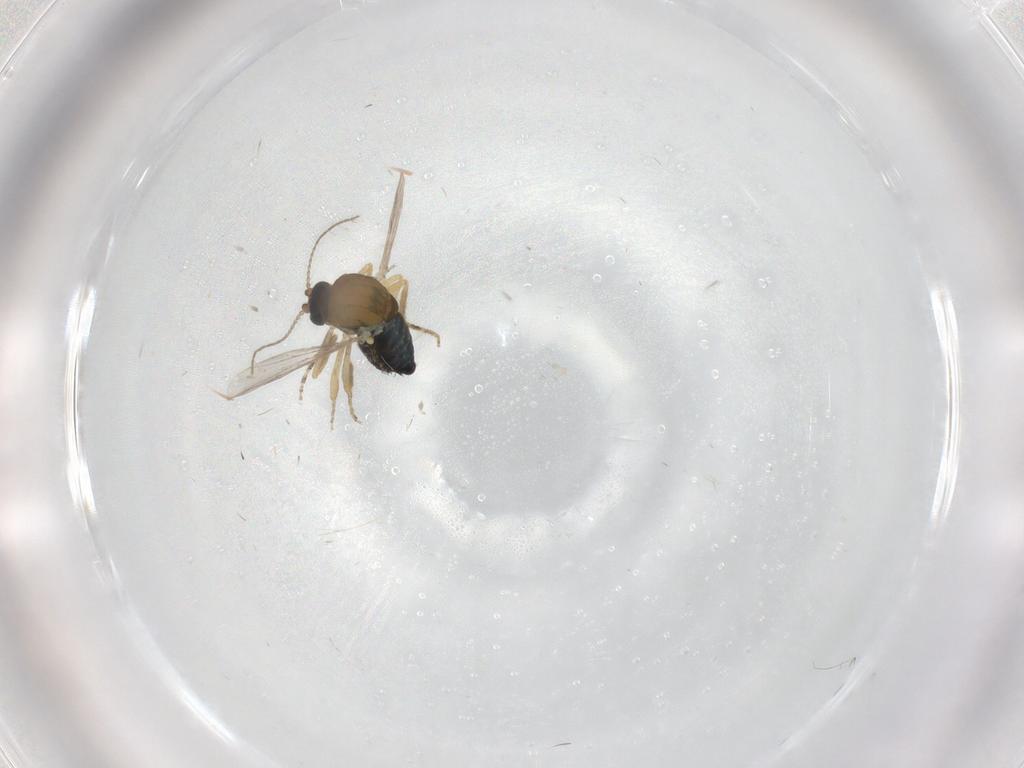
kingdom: Animalia
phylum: Arthropoda
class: Insecta
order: Diptera
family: Ceratopogonidae
